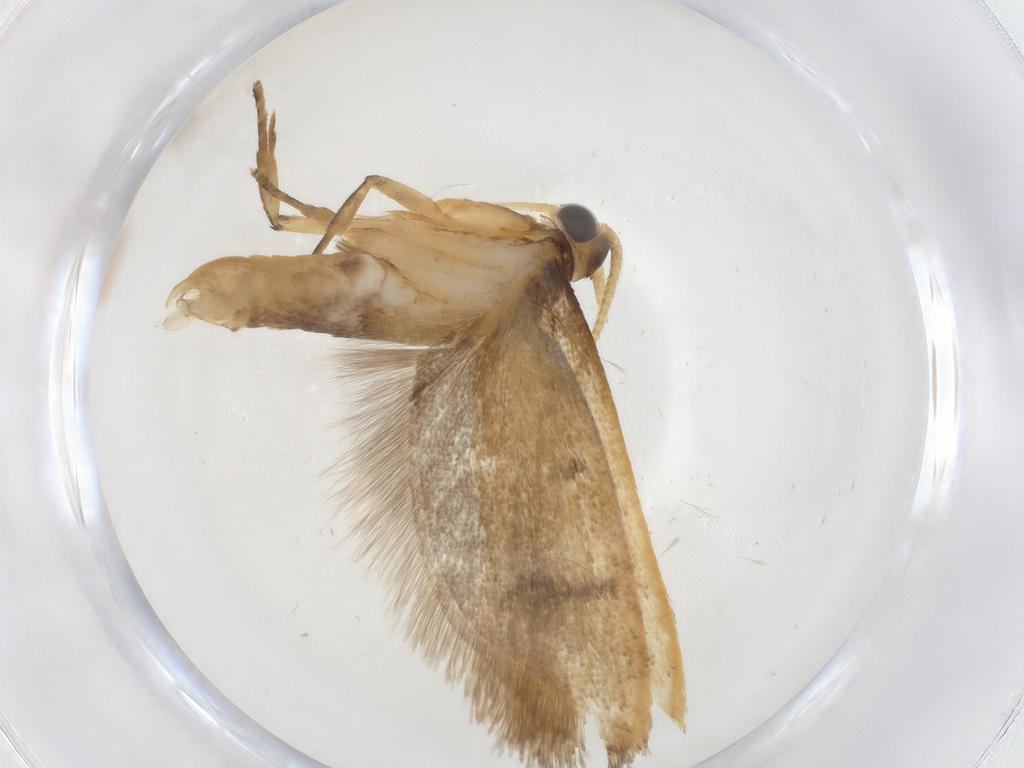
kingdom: Animalia
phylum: Arthropoda
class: Insecta
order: Lepidoptera
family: Lecithoceridae
